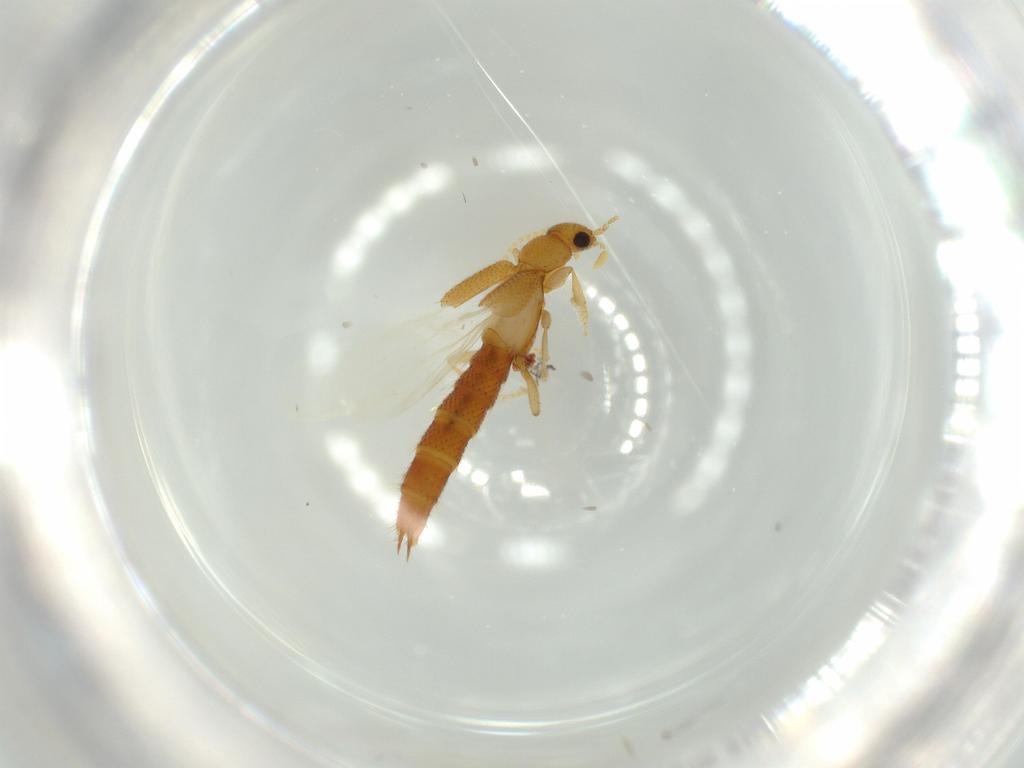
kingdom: Animalia
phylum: Arthropoda
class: Insecta
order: Coleoptera
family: Staphylinidae
